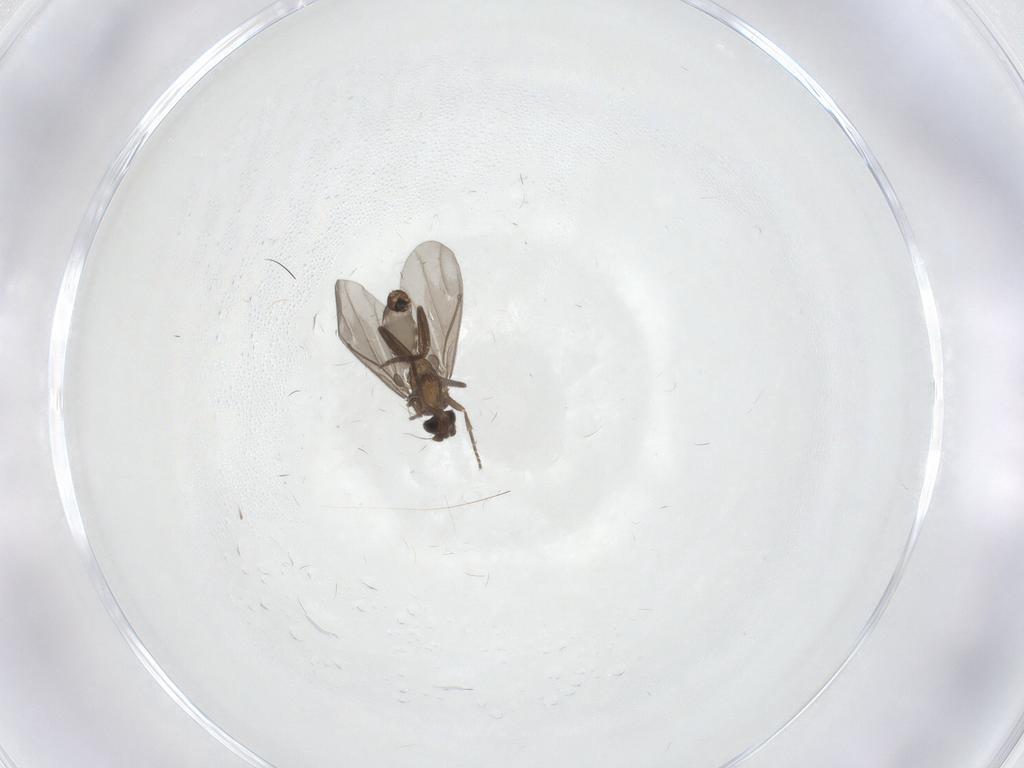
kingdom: Animalia
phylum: Arthropoda
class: Insecta
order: Diptera
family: Phoridae
